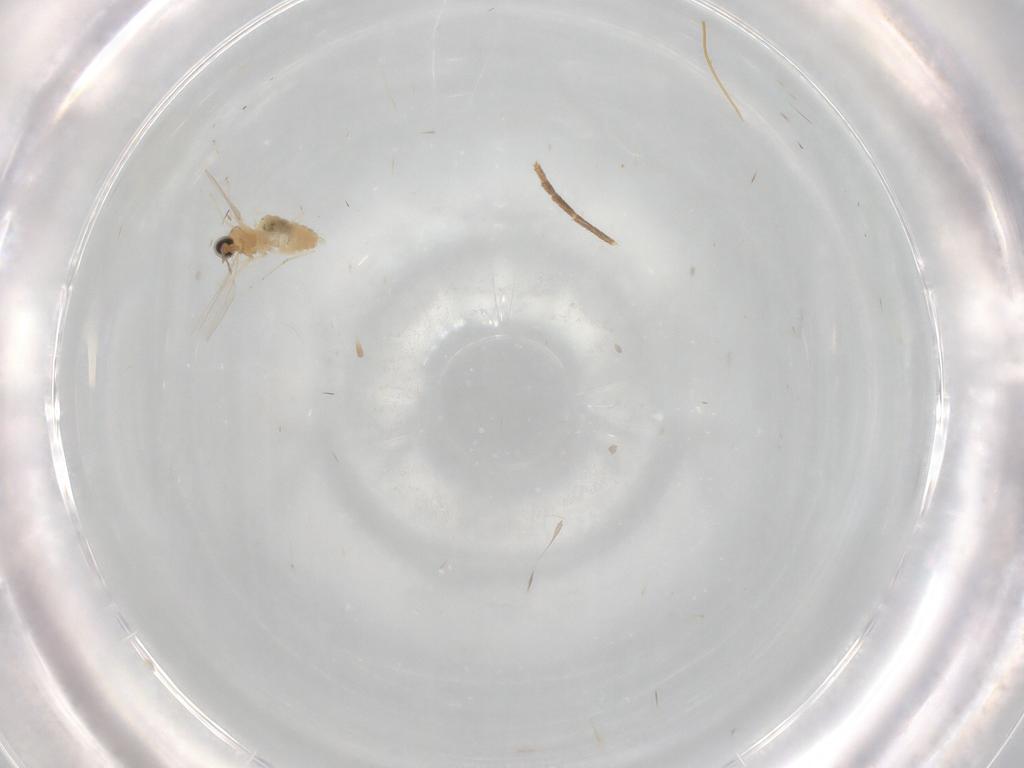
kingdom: Animalia
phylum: Arthropoda
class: Insecta
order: Diptera
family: Cecidomyiidae
